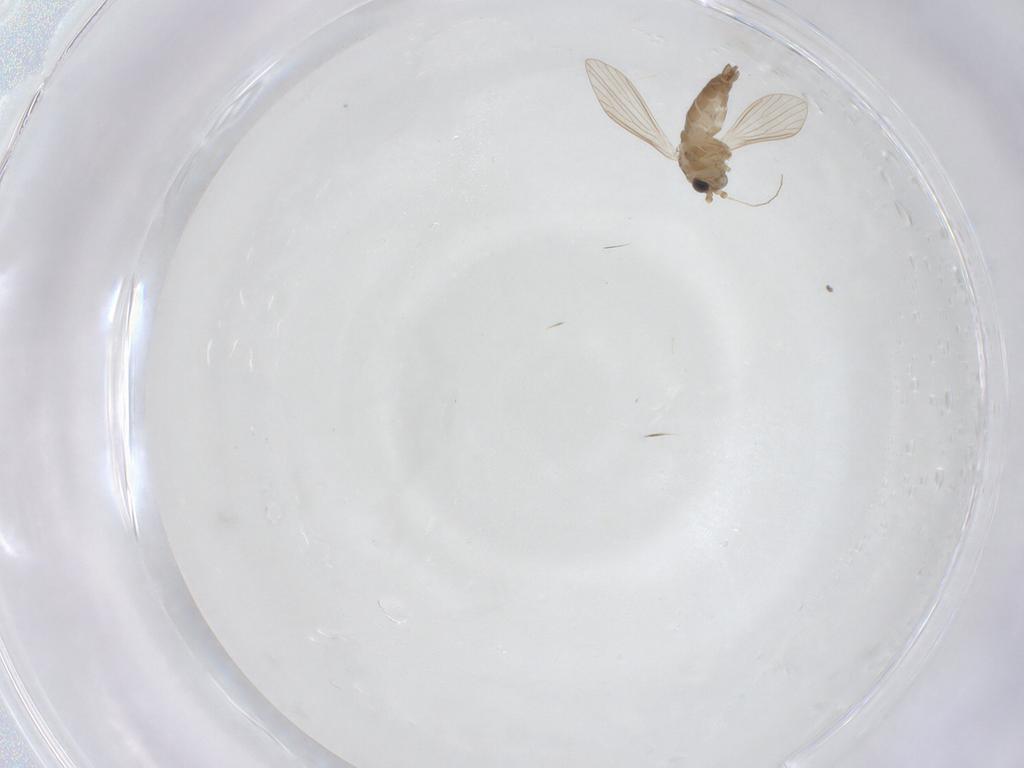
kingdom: Animalia
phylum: Arthropoda
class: Insecta
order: Diptera
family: Psychodidae
